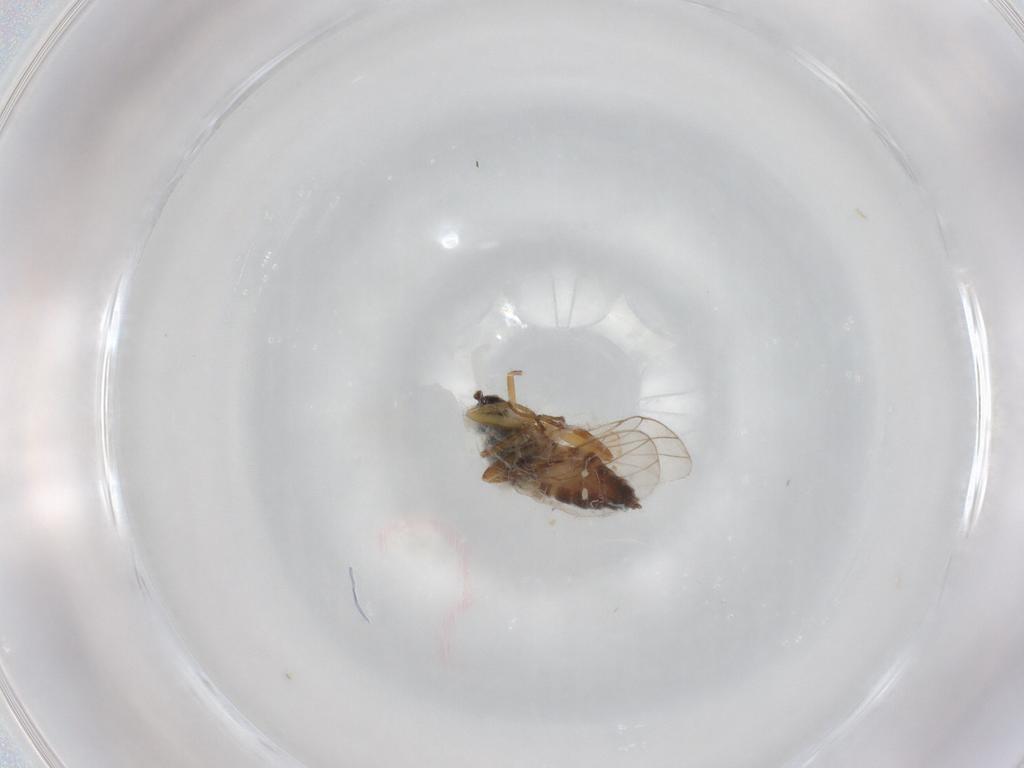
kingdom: Animalia
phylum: Arthropoda
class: Insecta
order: Diptera
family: Hybotidae
